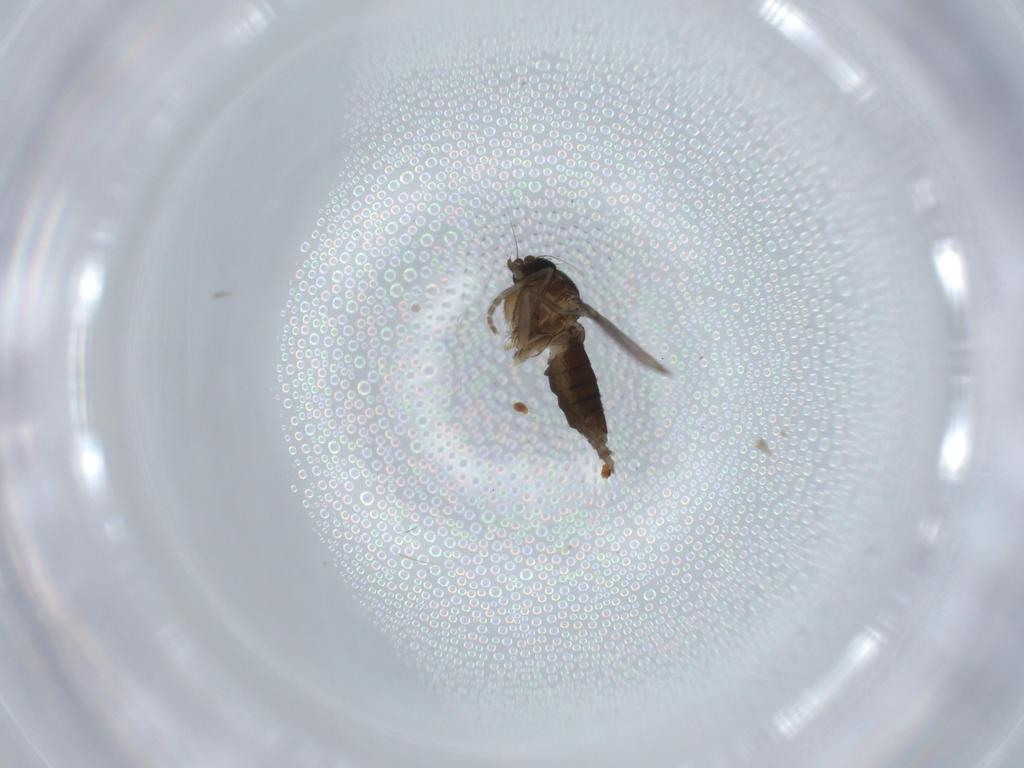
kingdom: Animalia
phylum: Arthropoda
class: Insecta
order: Diptera
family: Phoridae
